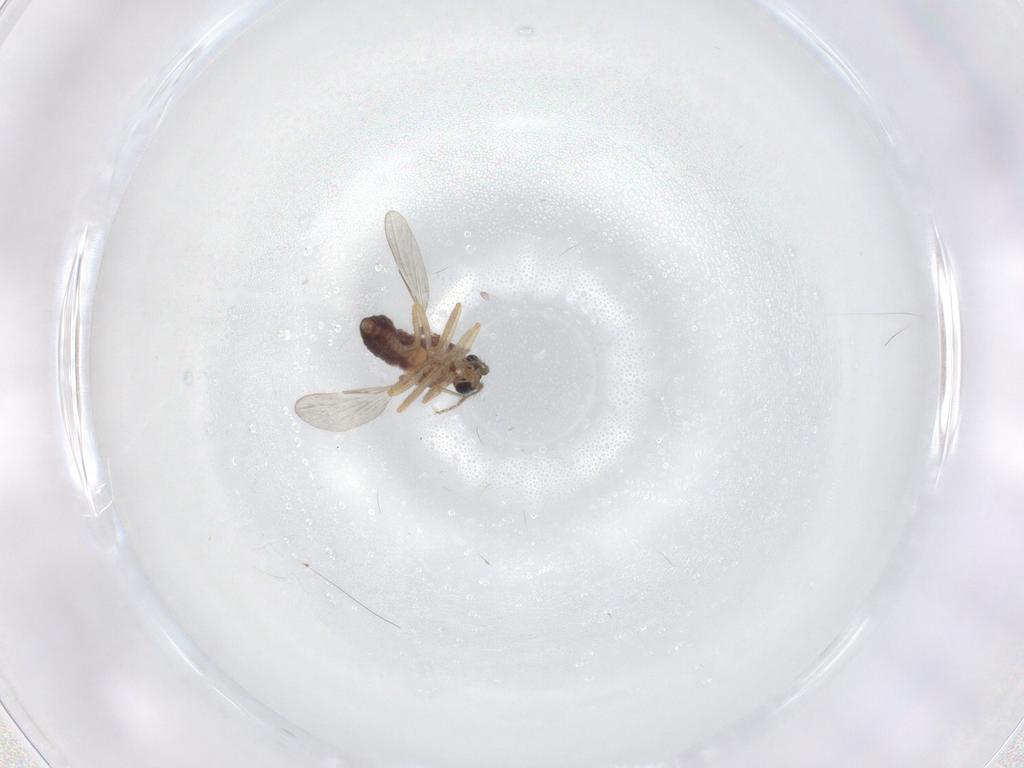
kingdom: Animalia
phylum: Arthropoda
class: Insecta
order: Diptera
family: Ceratopogonidae
